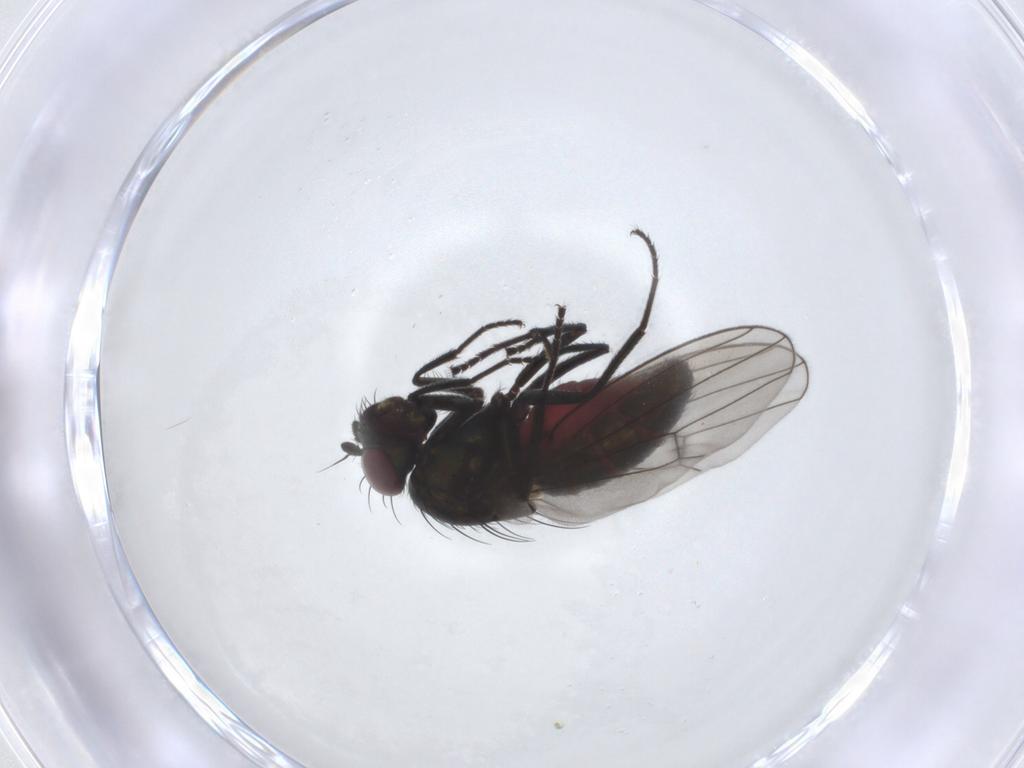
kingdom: Animalia
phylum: Arthropoda
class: Insecta
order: Diptera
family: Ephydridae
